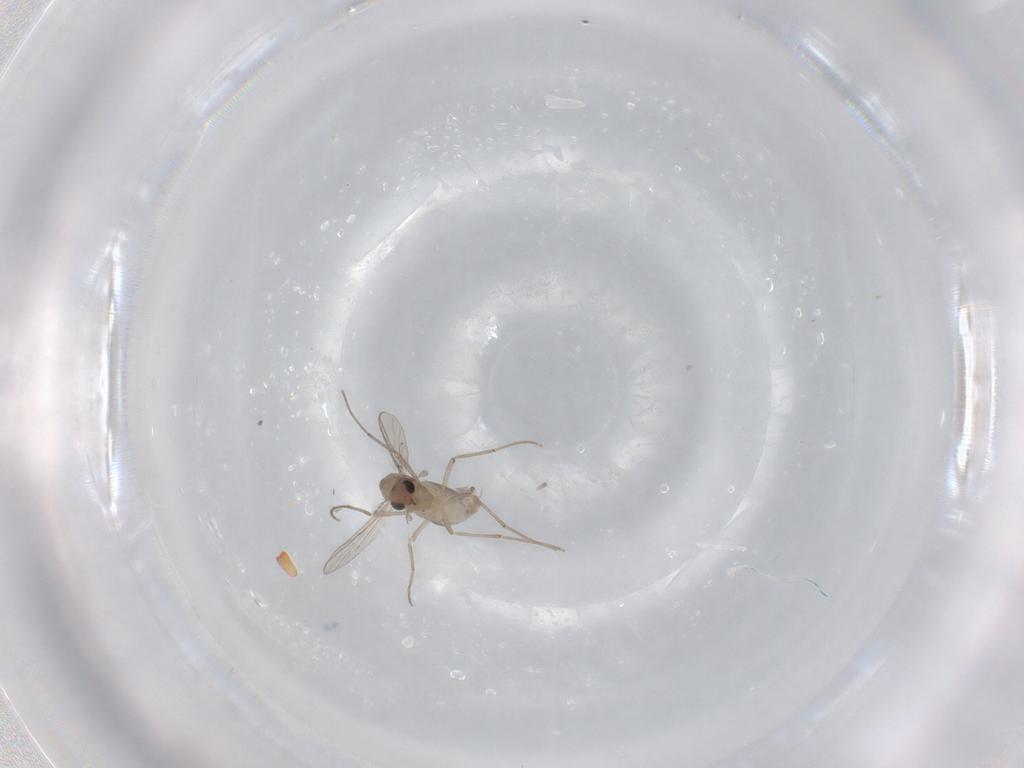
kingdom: Animalia
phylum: Arthropoda
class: Insecta
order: Diptera
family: Chironomidae
